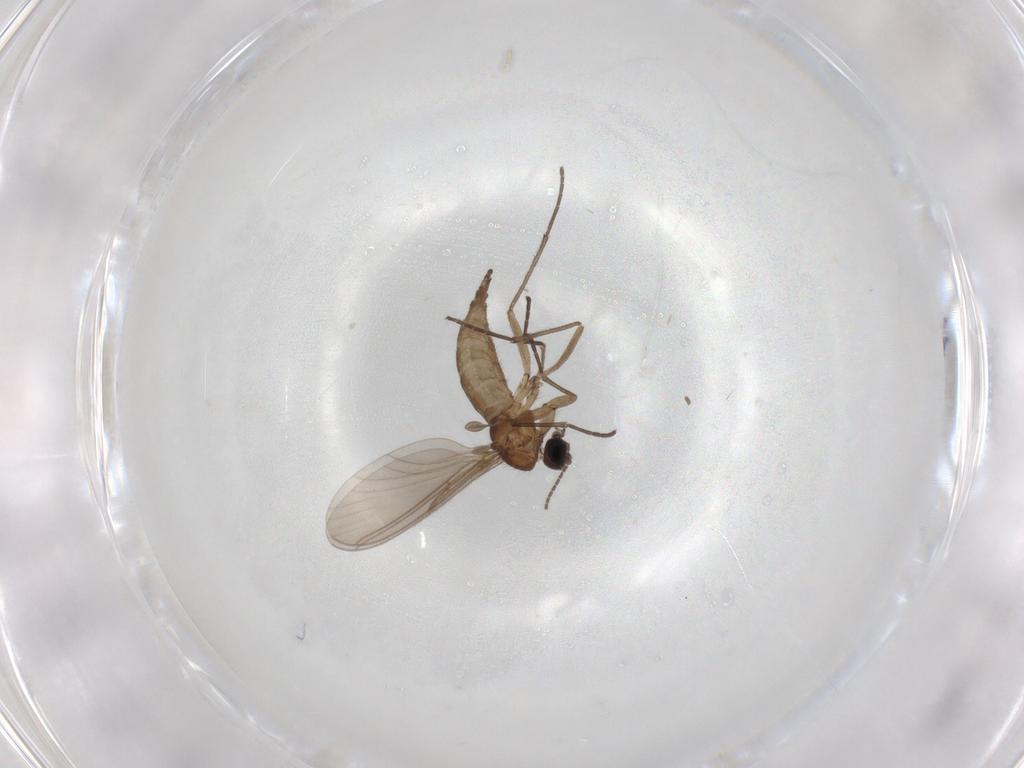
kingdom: Animalia
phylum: Arthropoda
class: Insecta
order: Diptera
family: Sciaridae
